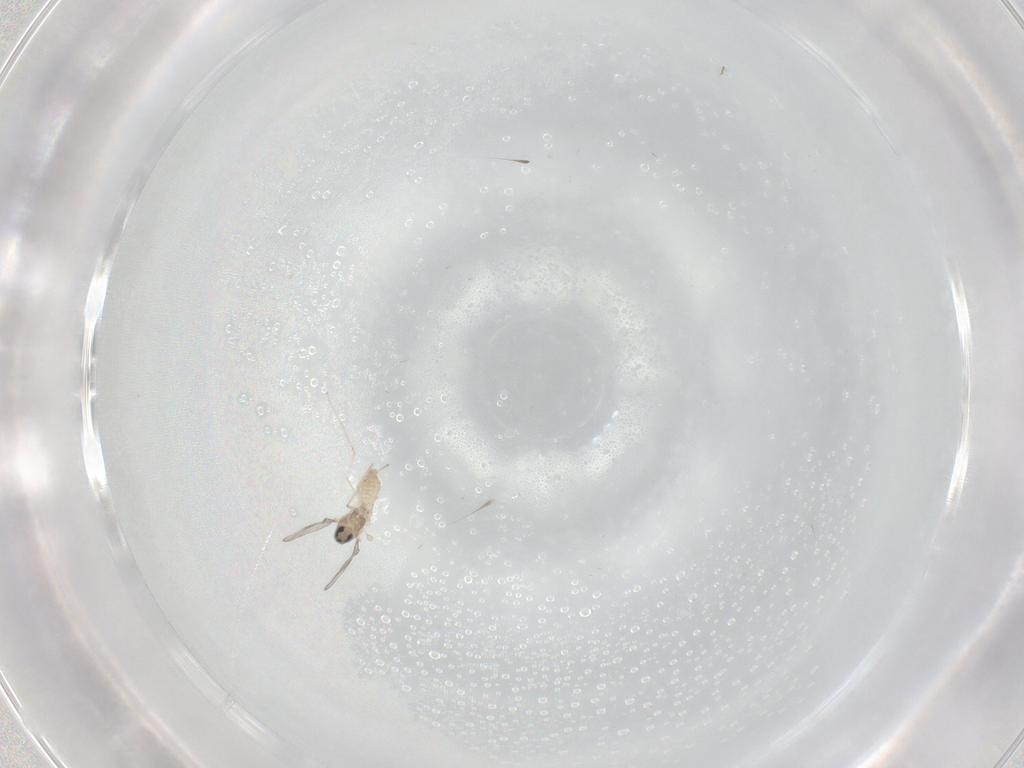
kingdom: Animalia
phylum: Arthropoda
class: Insecta
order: Diptera
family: Cecidomyiidae
